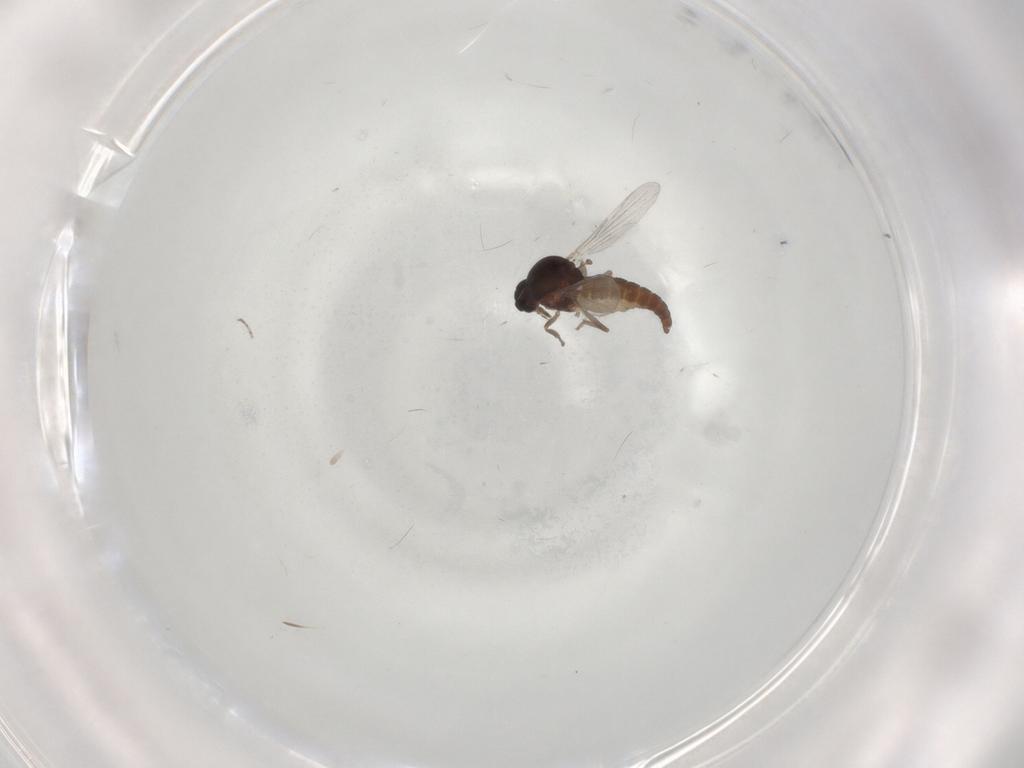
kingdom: Animalia
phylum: Arthropoda
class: Insecta
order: Diptera
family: Ceratopogonidae
